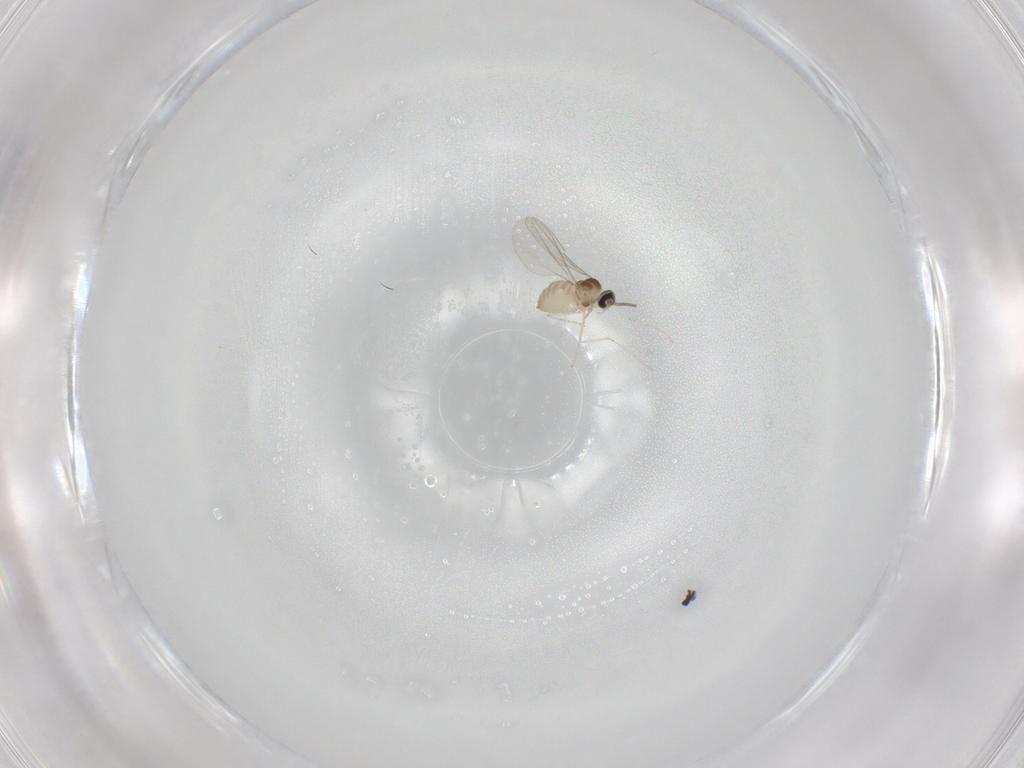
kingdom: Animalia
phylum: Arthropoda
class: Insecta
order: Diptera
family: Cecidomyiidae
